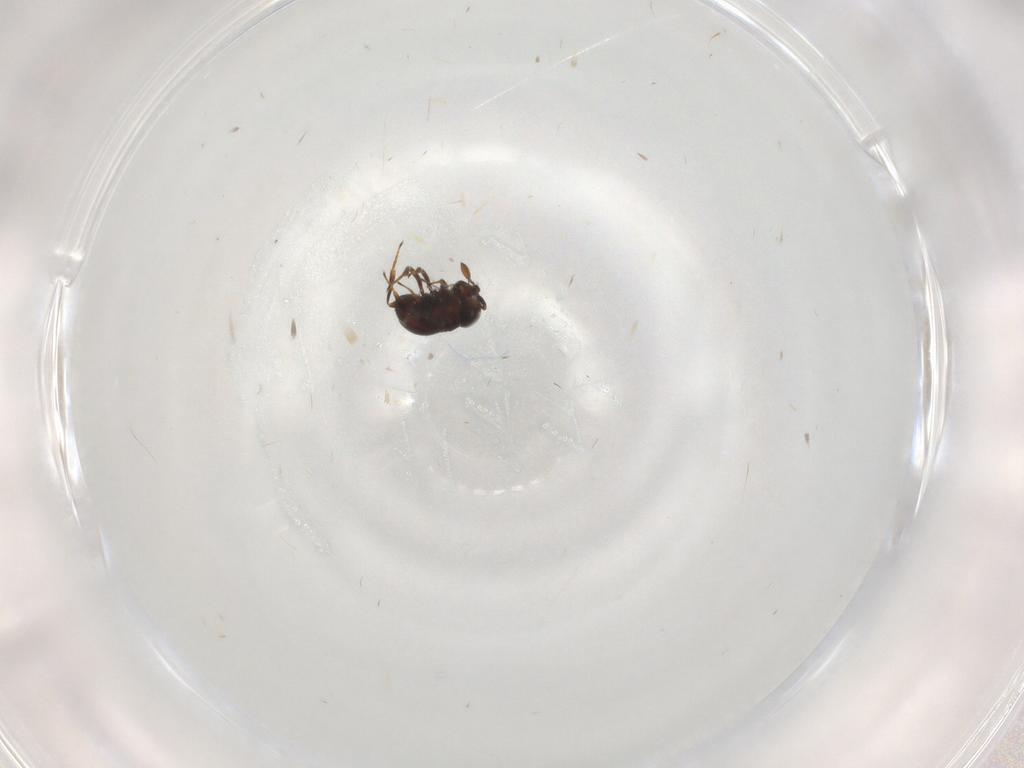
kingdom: Animalia
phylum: Arthropoda
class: Insecta
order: Hymenoptera
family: Scelionidae
